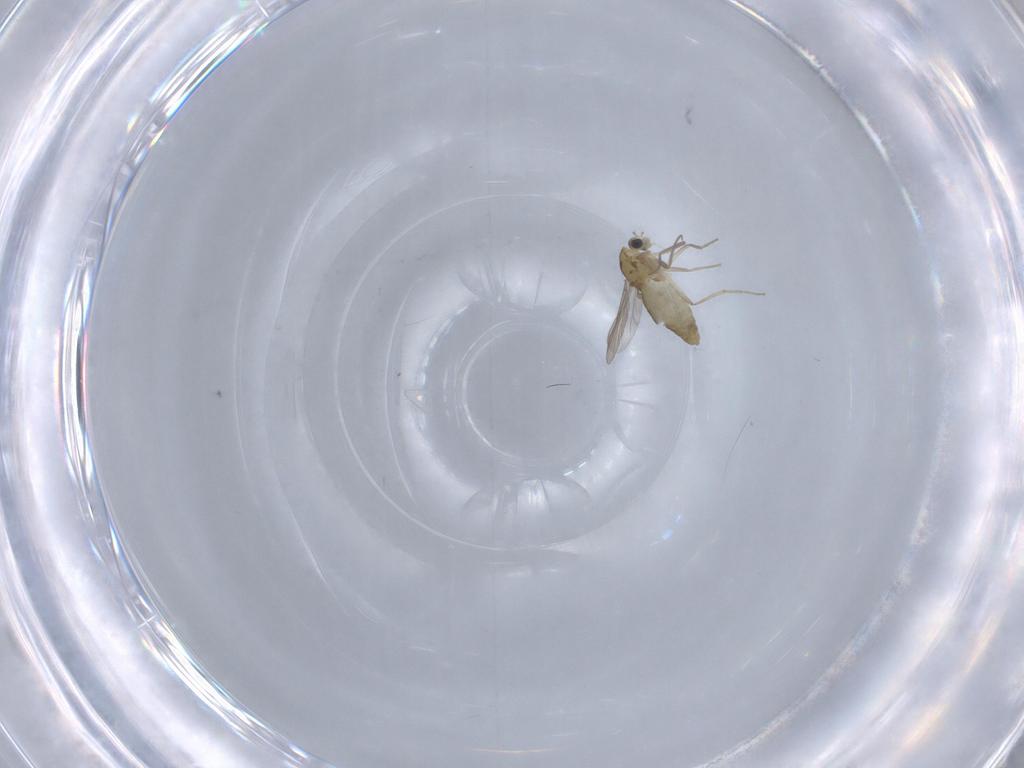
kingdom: Animalia
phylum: Arthropoda
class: Insecta
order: Diptera
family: Chironomidae
